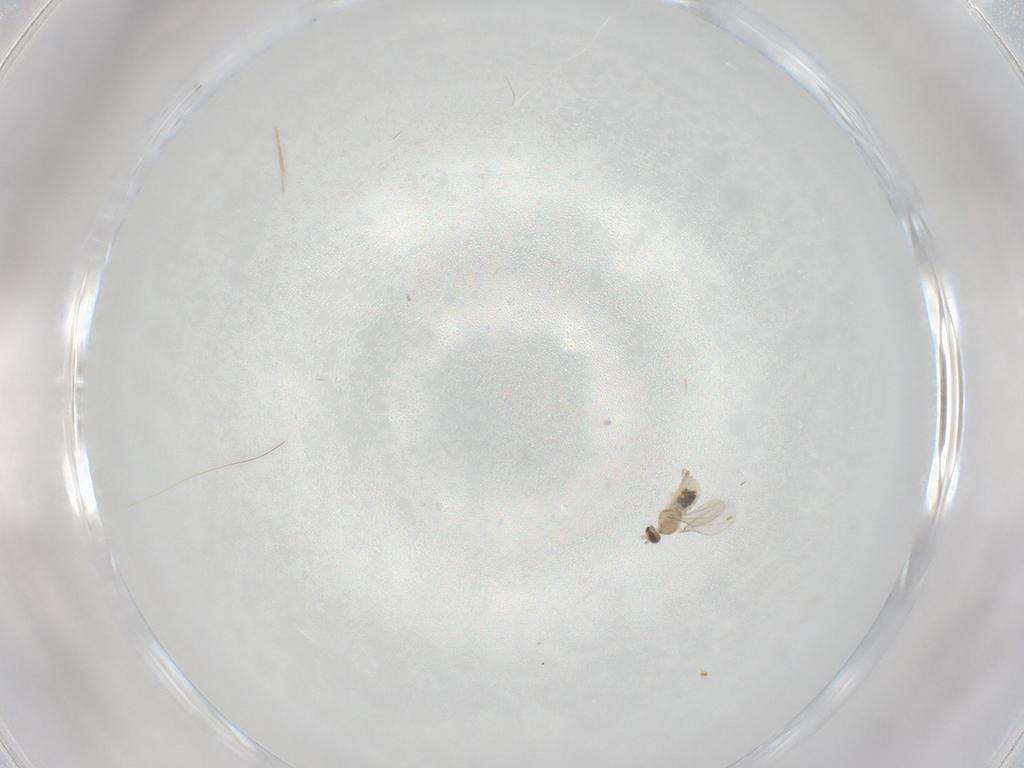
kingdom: Animalia
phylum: Arthropoda
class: Insecta
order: Diptera
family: Cecidomyiidae
